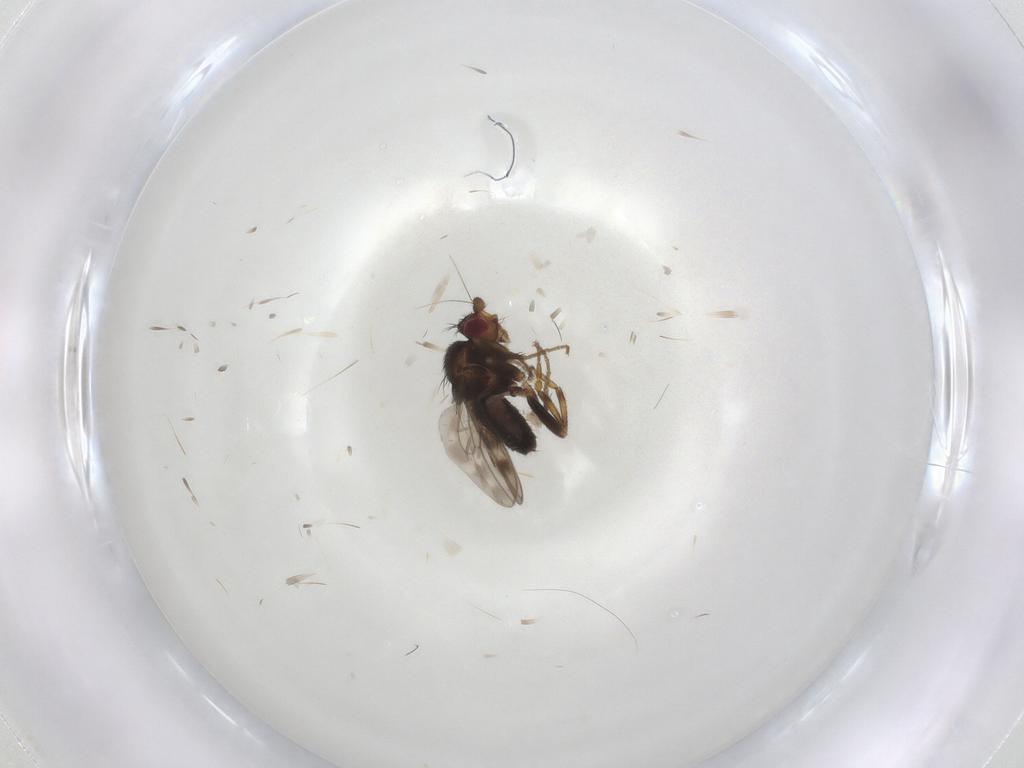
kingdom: Animalia
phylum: Arthropoda
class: Insecta
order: Diptera
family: Sphaeroceridae
